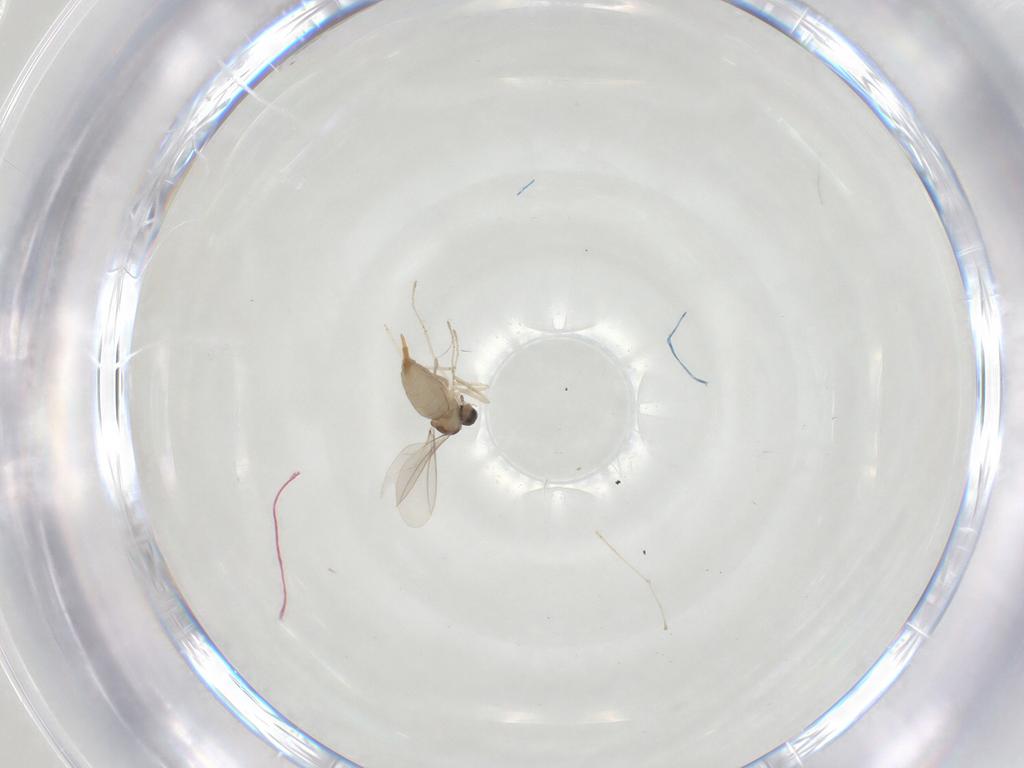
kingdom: Animalia
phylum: Arthropoda
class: Insecta
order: Diptera
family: Cecidomyiidae
